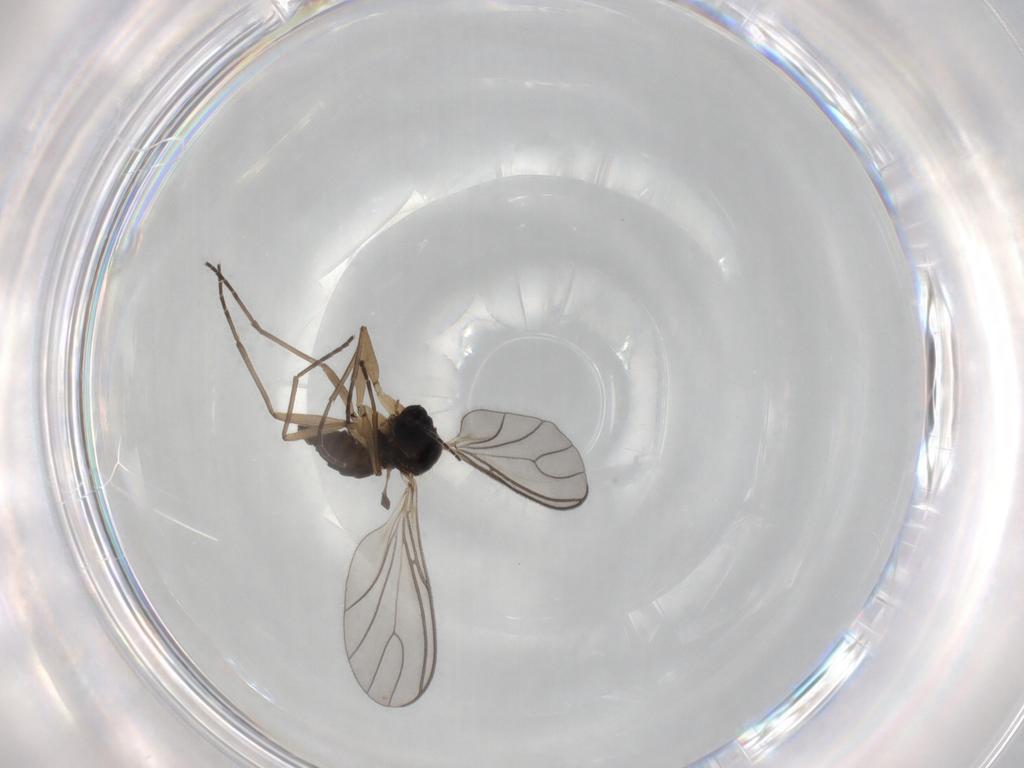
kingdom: Animalia
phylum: Arthropoda
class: Insecta
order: Diptera
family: Sciaridae
